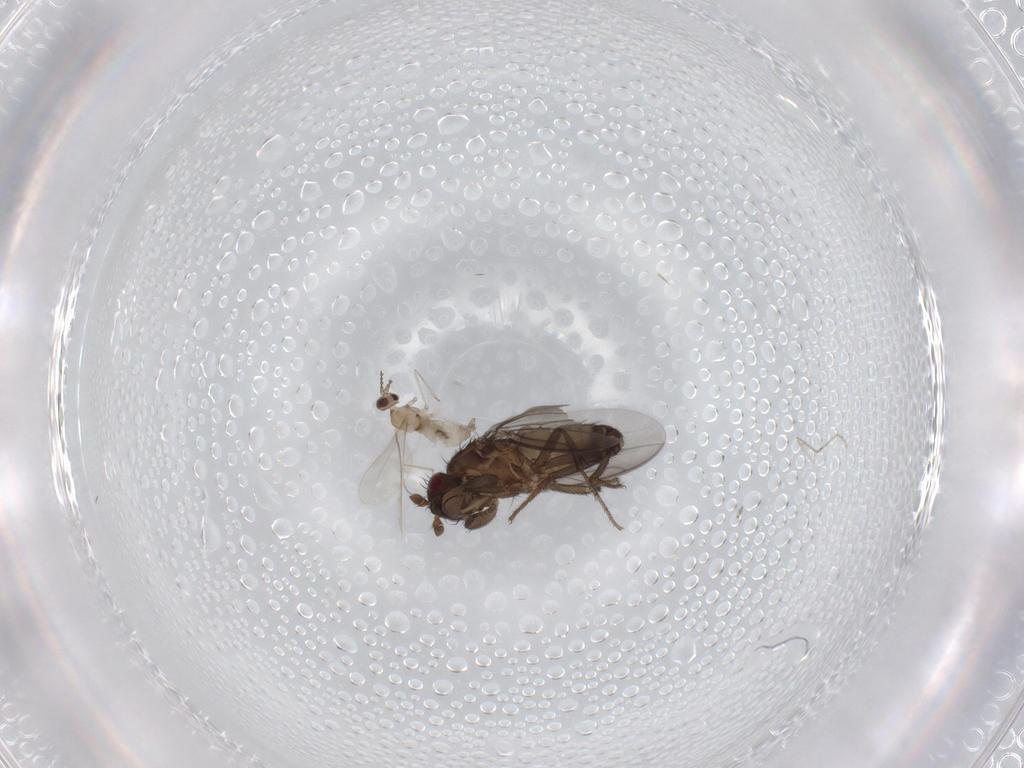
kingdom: Animalia
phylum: Arthropoda
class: Insecta
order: Diptera
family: Cecidomyiidae
